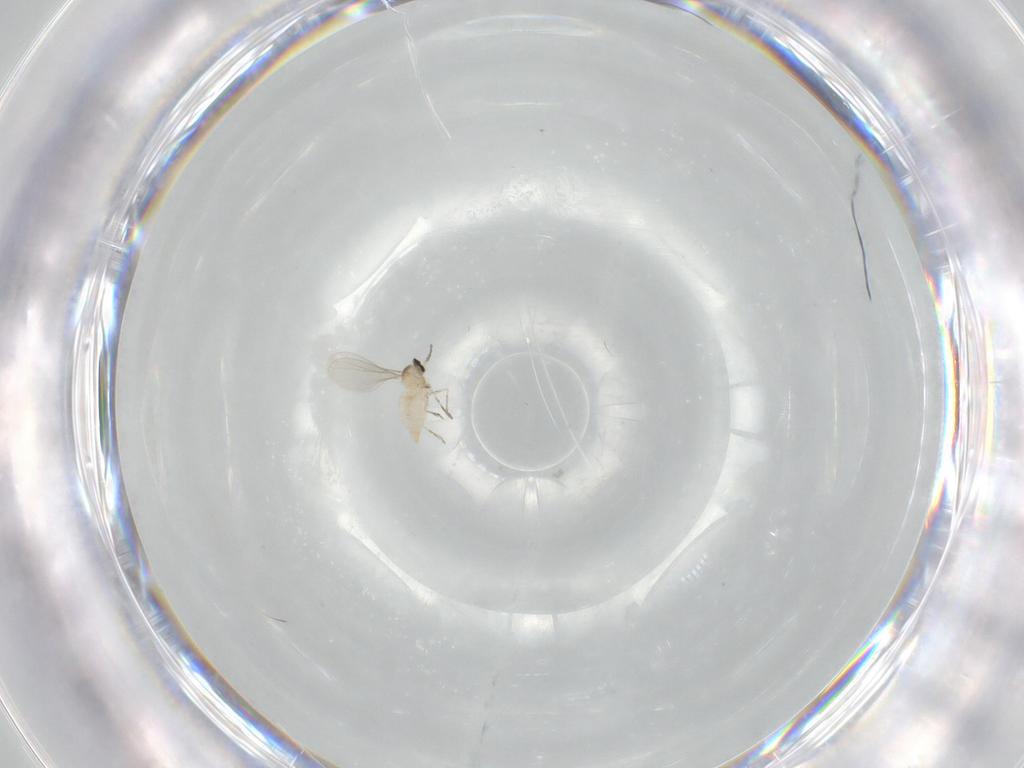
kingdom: Animalia
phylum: Arthropoda
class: Insecta
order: Diptera
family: Cecidomyiidae
